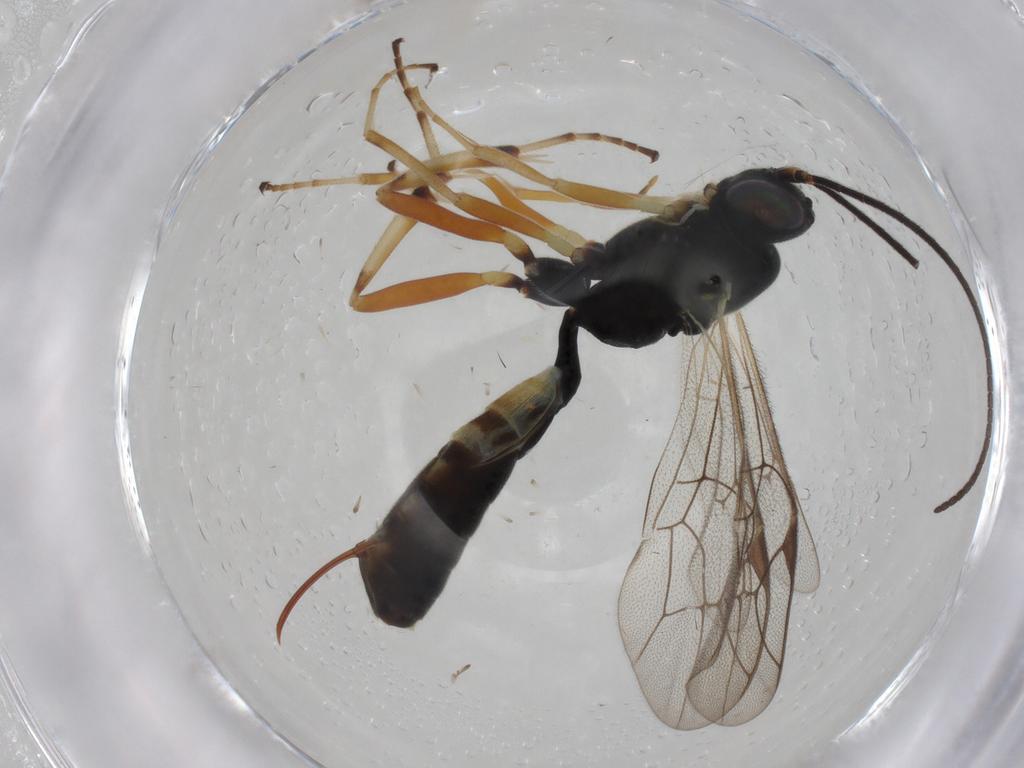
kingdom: Animalia
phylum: Arthropoda
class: Insecta
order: Hymenoptera
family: Ichneumonidae
